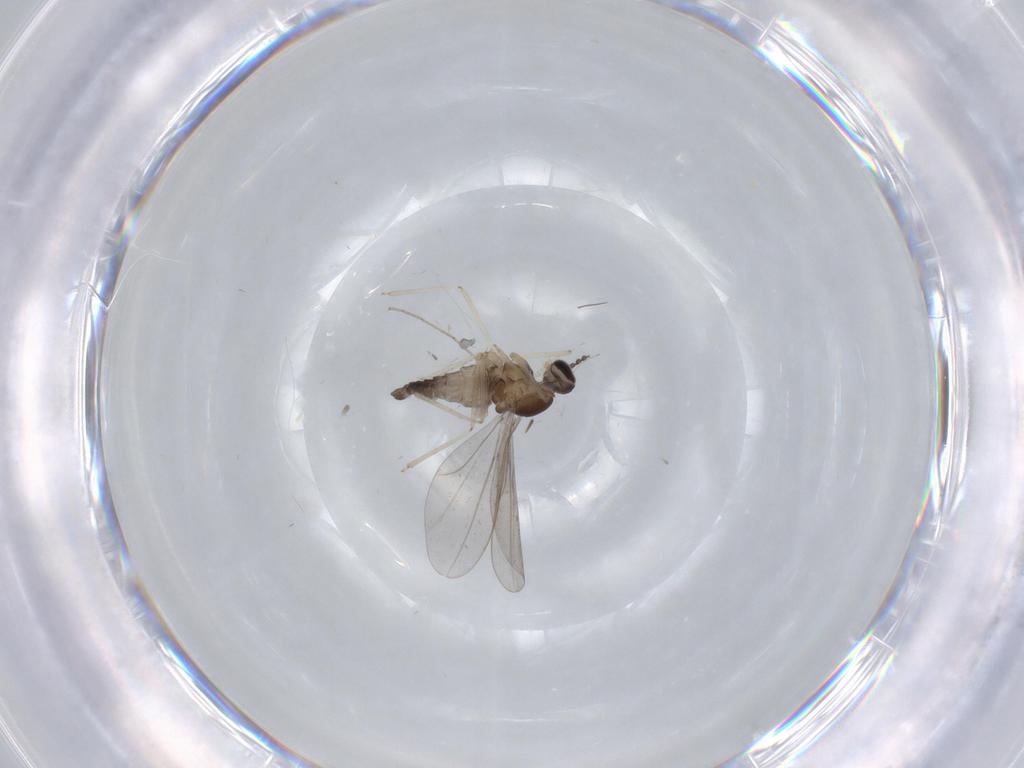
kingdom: Animalia
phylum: Arthropoda
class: Insecta
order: Diptera
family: Cecidomyiidae
